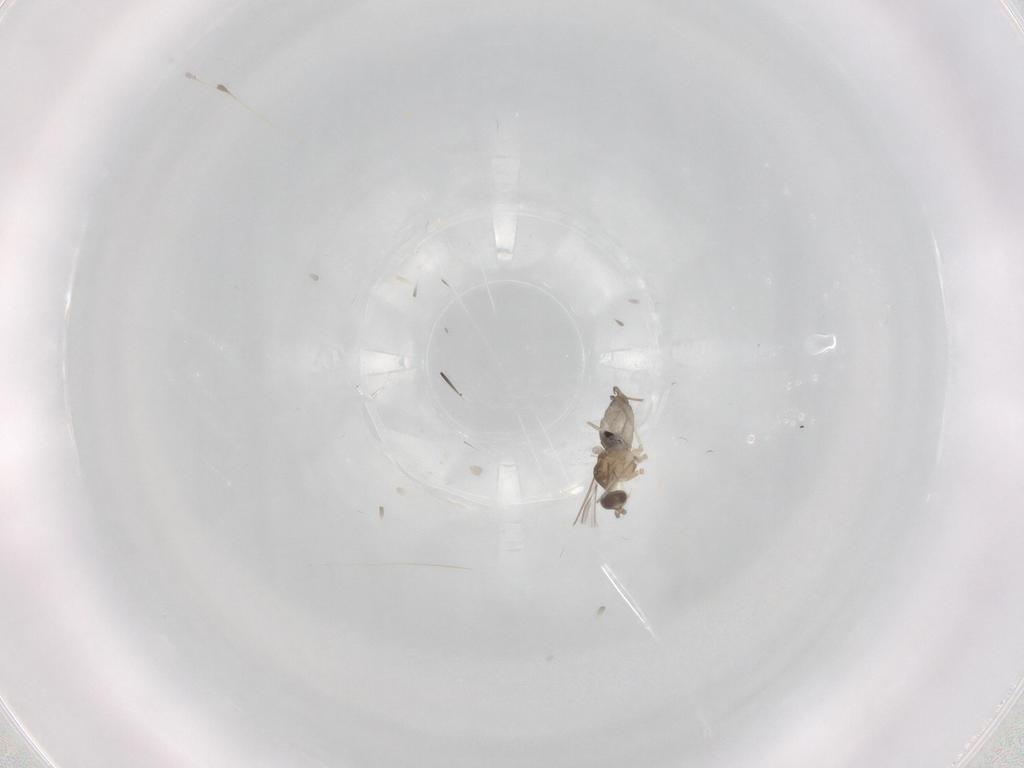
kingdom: Animalia
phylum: Arthropoda
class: Insecta
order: Diptera
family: Cecidomyiidae
